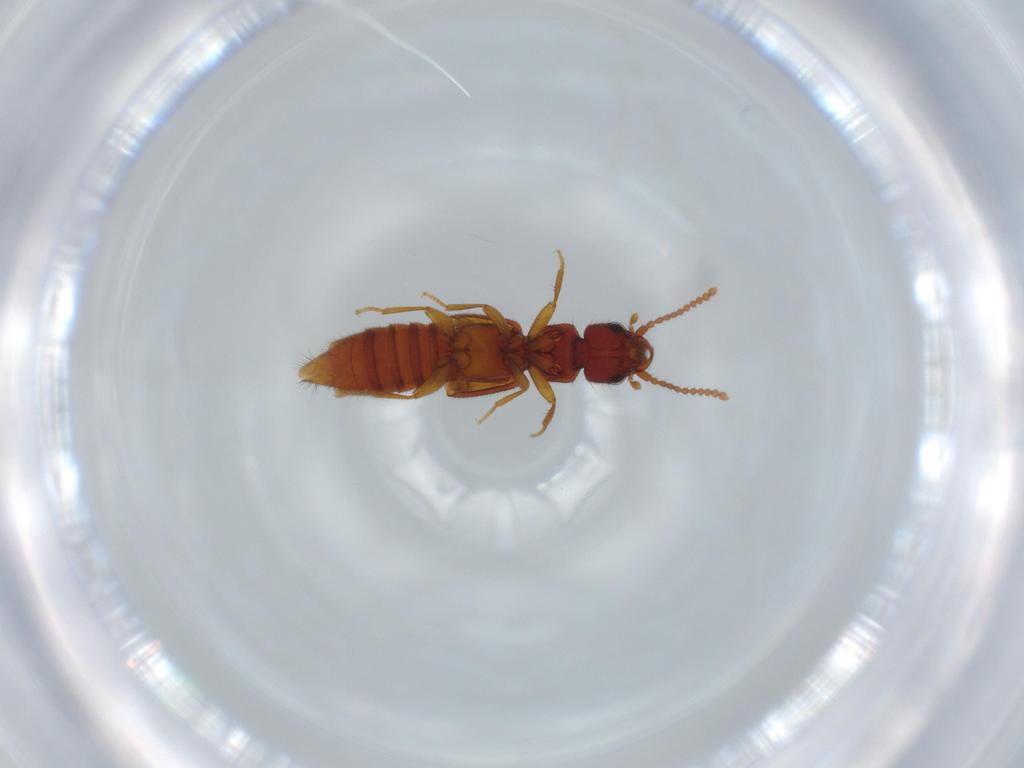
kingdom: Animalia
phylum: Arthropoda
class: Insecta
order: Coleoptera
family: Staphylinidae
